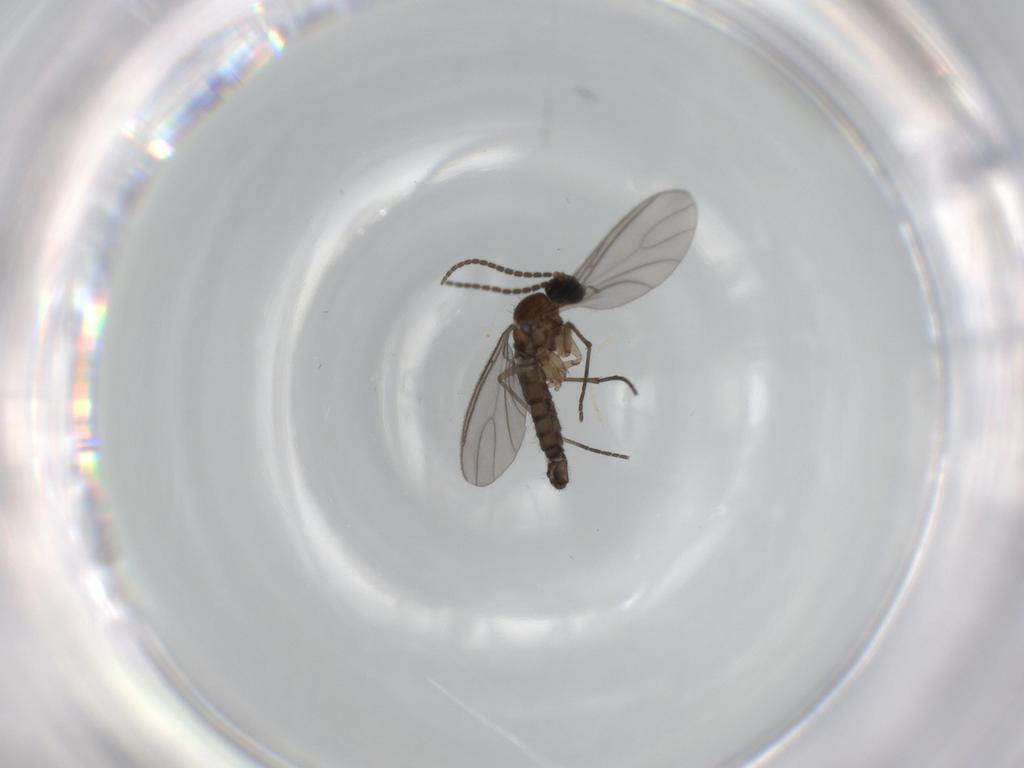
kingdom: Animalia
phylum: Arthropoda
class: Insecta
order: Diptera
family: Sciaridae
